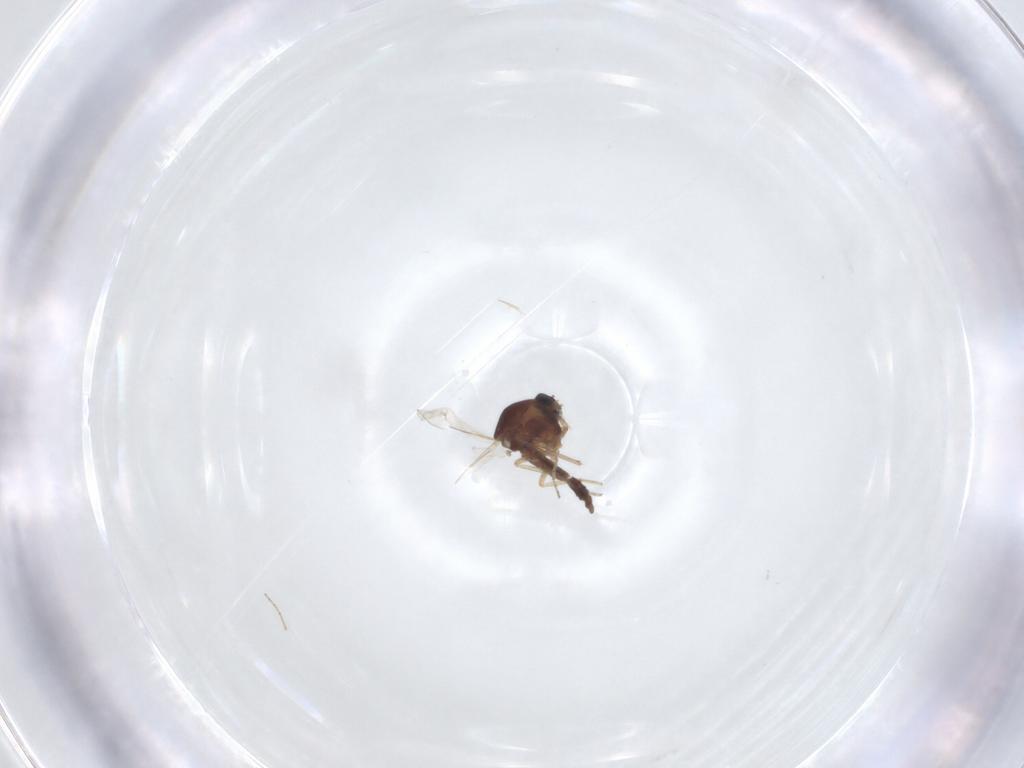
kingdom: Animalia
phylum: Arthropoda
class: Insecta
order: Diptera
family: Ceratopogonidae
